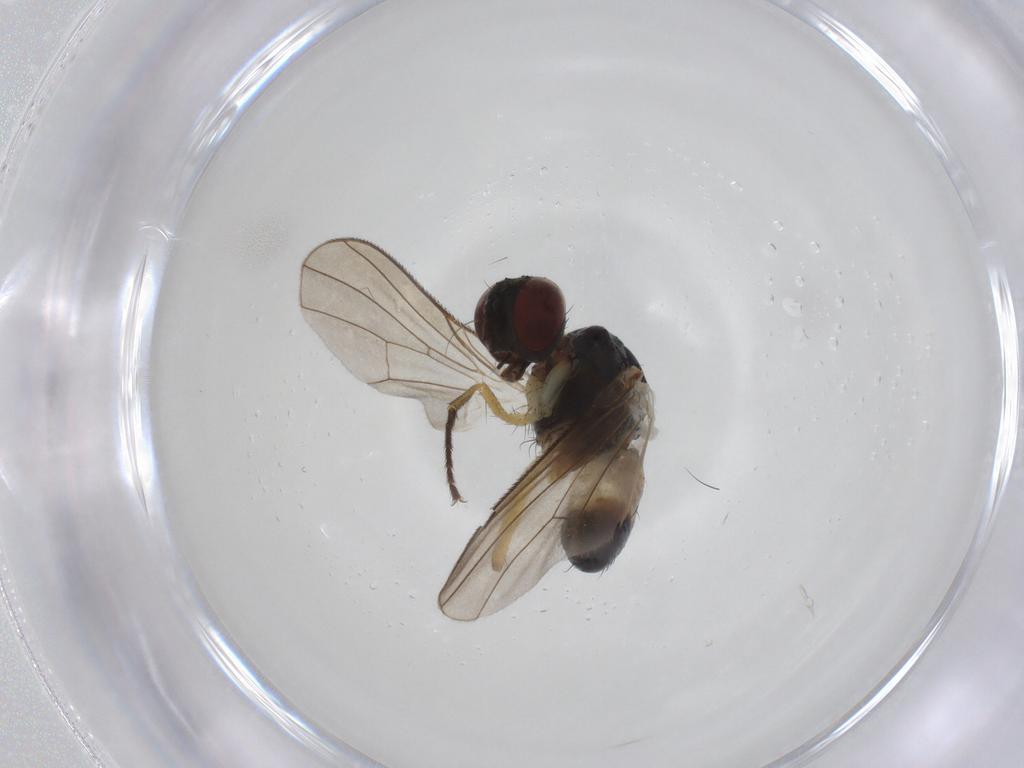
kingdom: Animalia
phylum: Arthropoda
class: Insecta
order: Diptera
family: Muscidae
